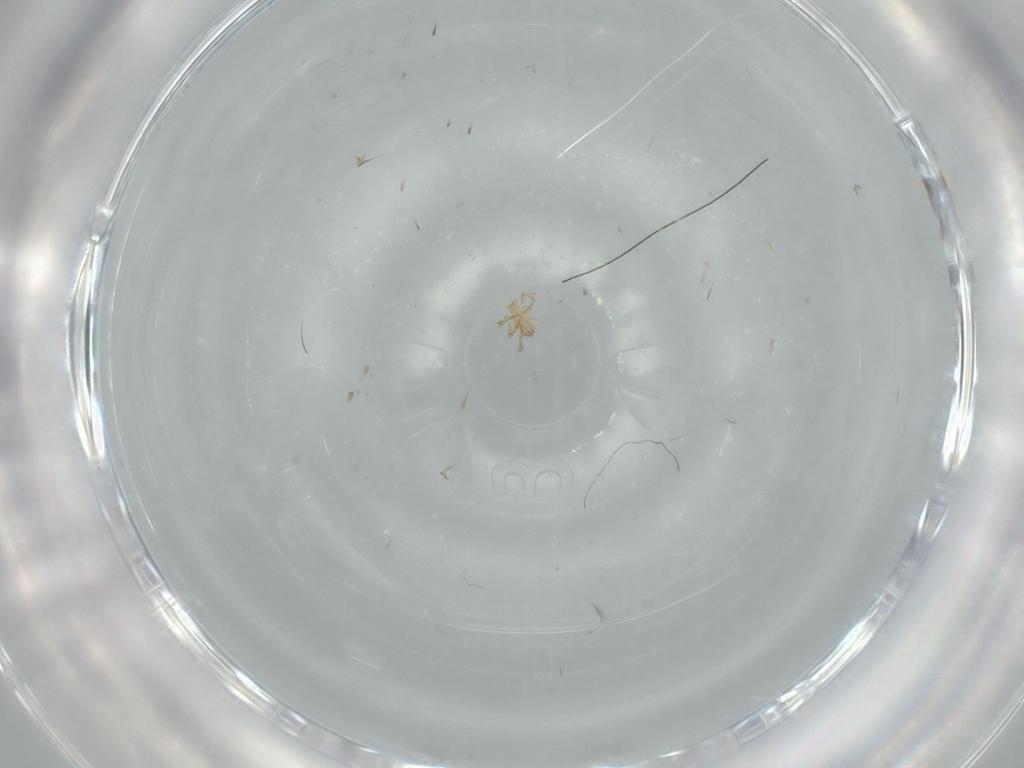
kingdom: Animalia
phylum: Arthropoda
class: Arachnida
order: Trombidiformes
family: Erythraeidae
